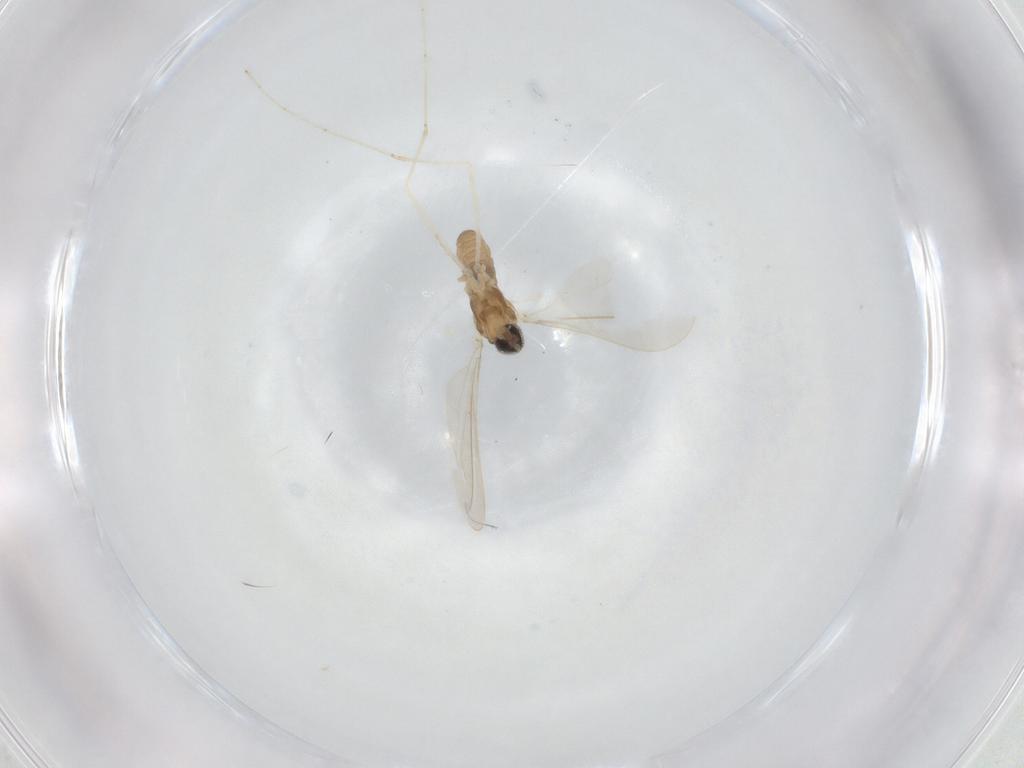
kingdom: Animalia
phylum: Arthropoda
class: Insecta
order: Diptera
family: Cecidomyiidae
